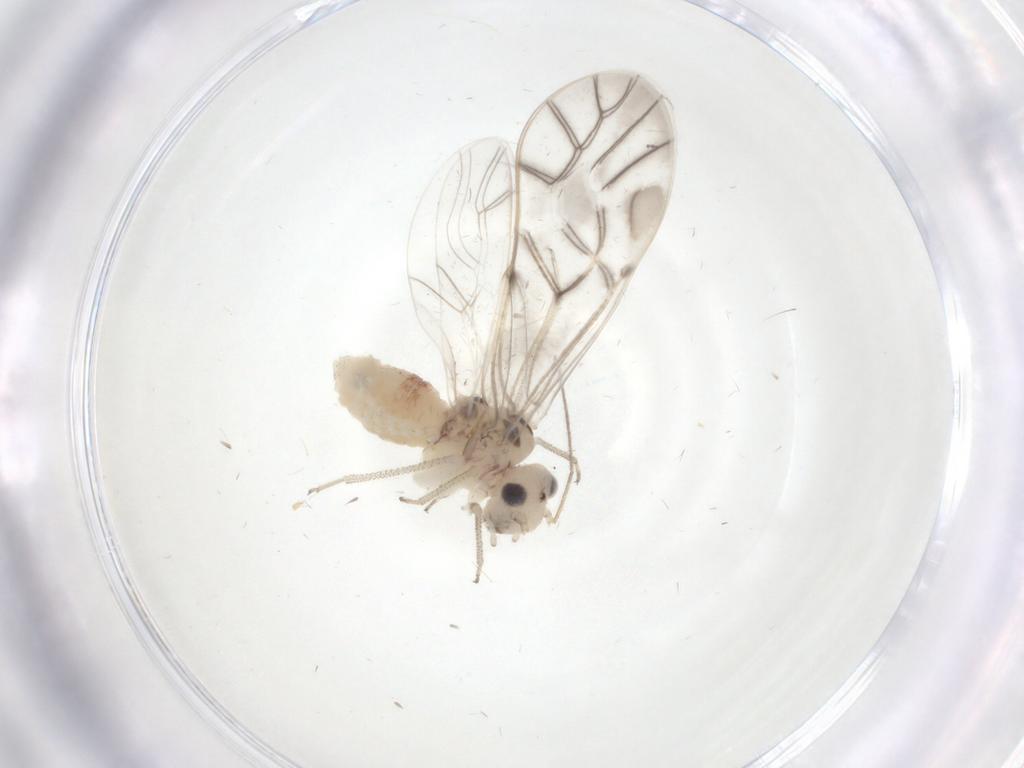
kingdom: Animalia
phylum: Arthropoda
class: Insecta
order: Psocodea
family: Psocidae
